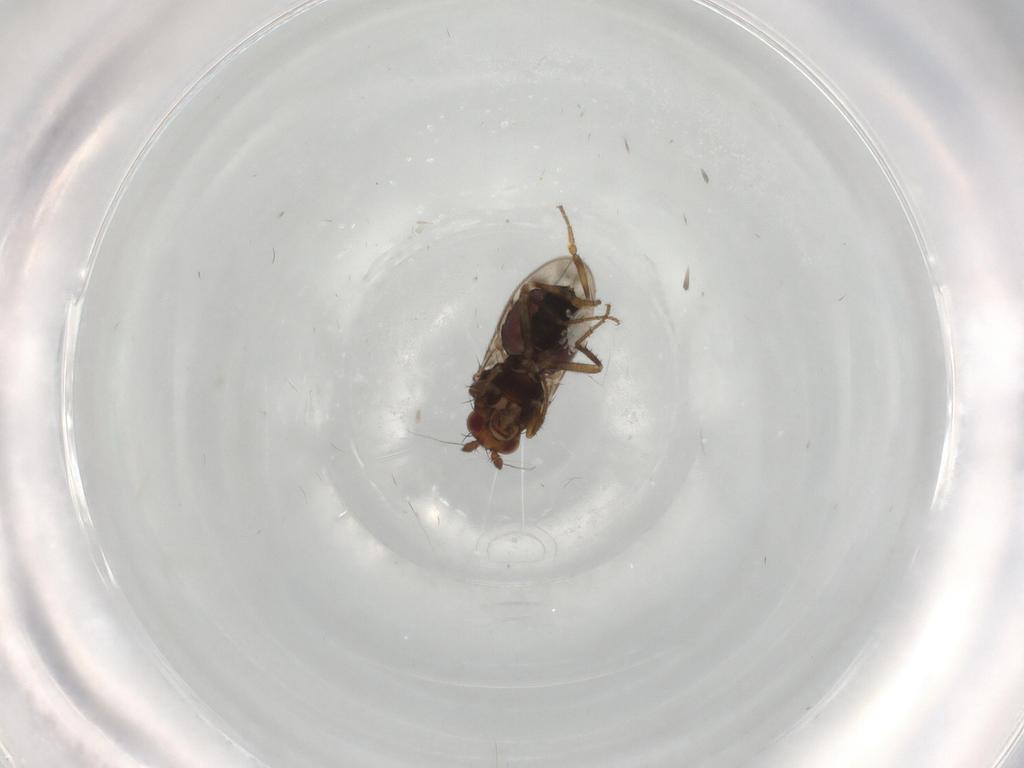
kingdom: Animalia
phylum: Arthropoda
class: Insecta
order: Diptera
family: Sphaeroceridae
